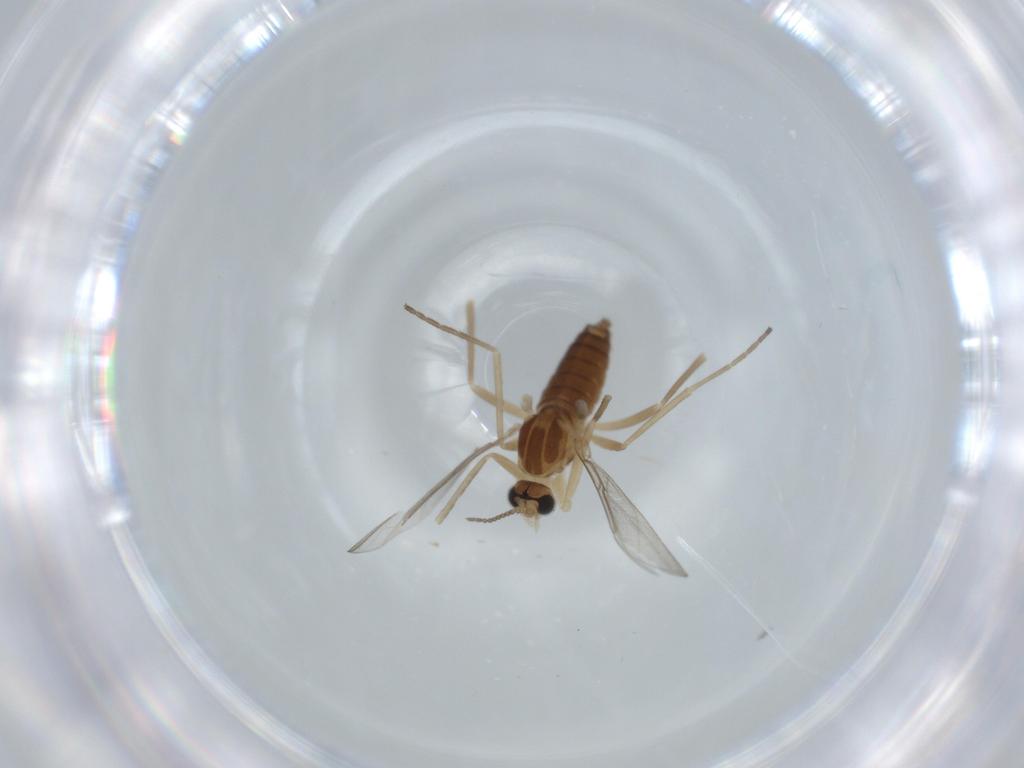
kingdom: Animalia
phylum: Arthropoda
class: Insecta
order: Diptera
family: Cecidomyiidae
